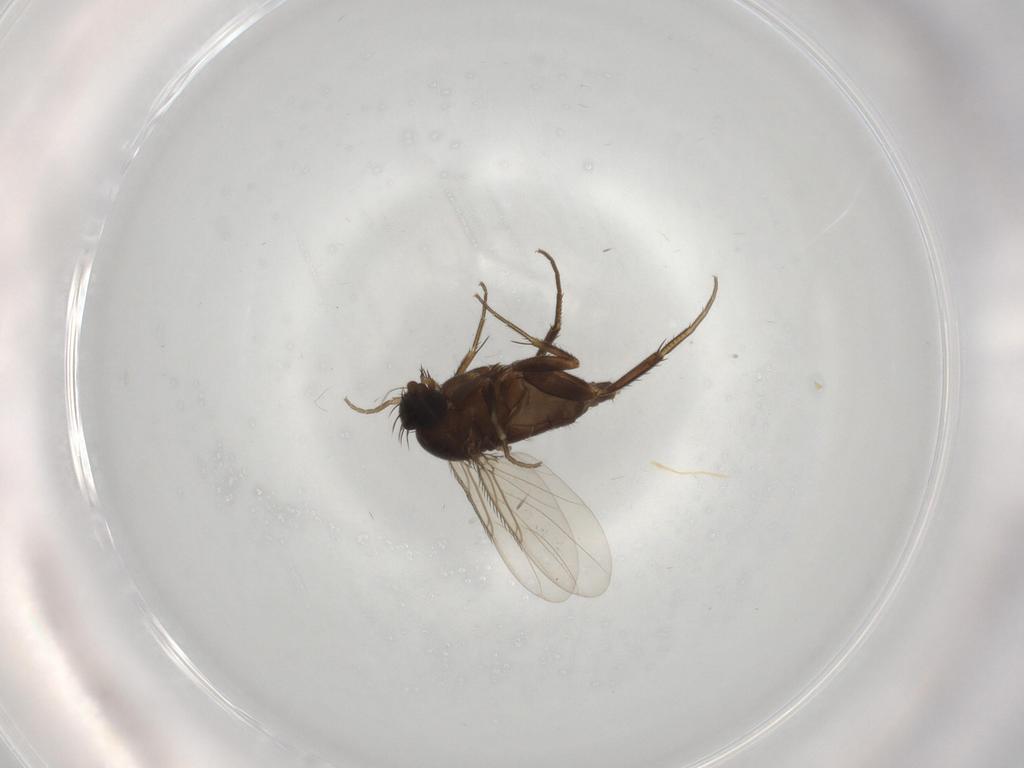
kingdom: Animalia
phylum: Arthropoda
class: Insecta
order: Diptera
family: Phoridae
